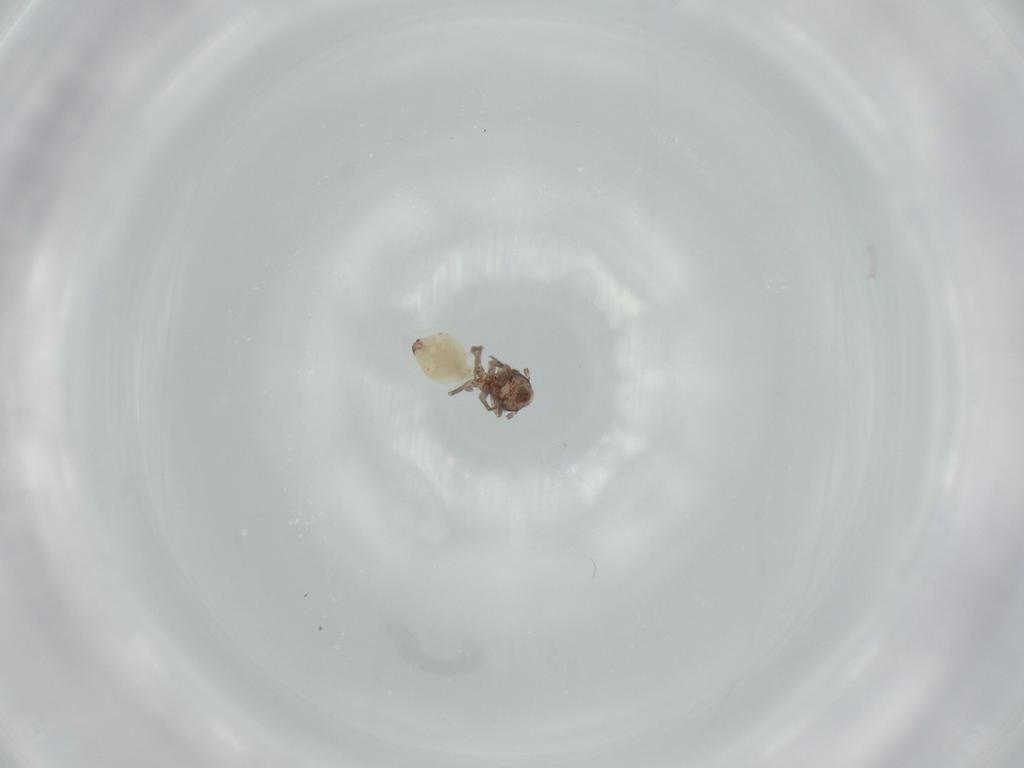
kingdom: Animalia
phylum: Arthropoda
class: Insecta
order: Psocodea
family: Lepidopsocidae
